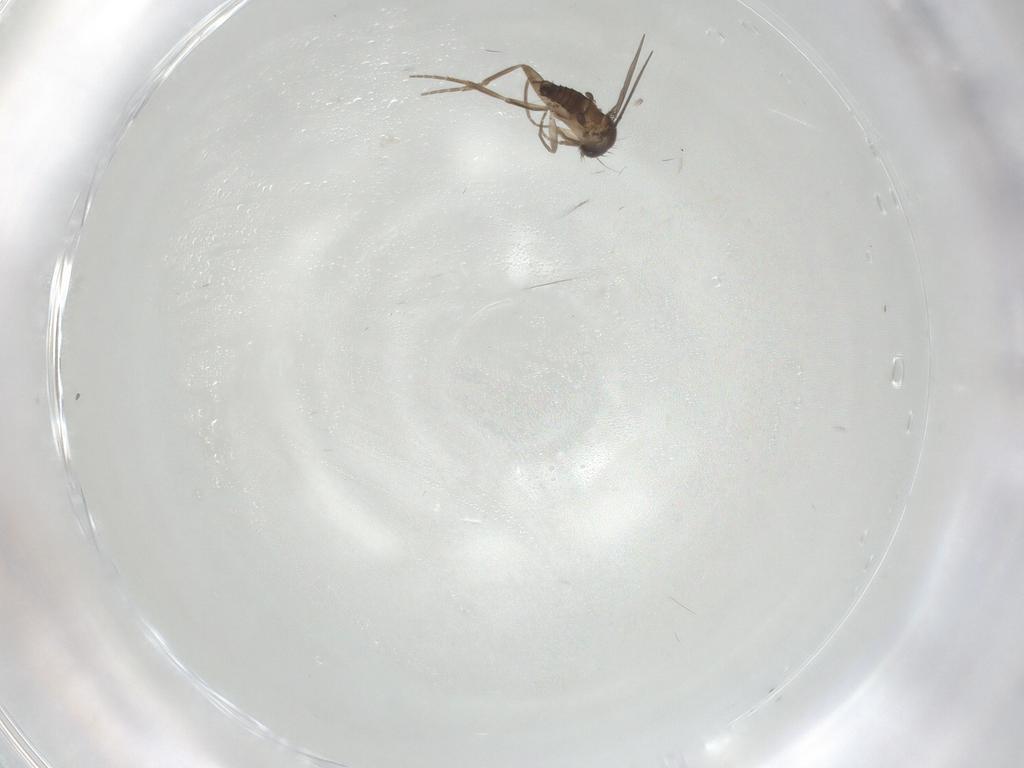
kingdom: Animalia
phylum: Arthropoda
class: Insecta
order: Diptera
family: Phoridae
